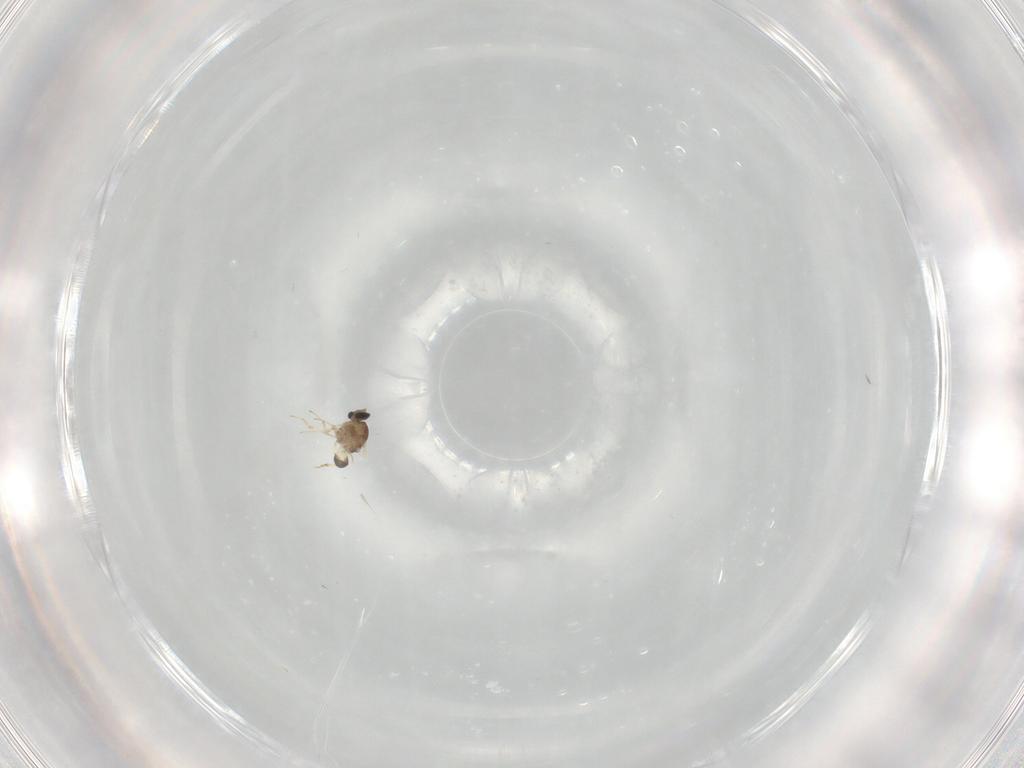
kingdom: Animalia
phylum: Arthropoda
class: Insecta
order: Diptera
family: Ceratopogonidae
